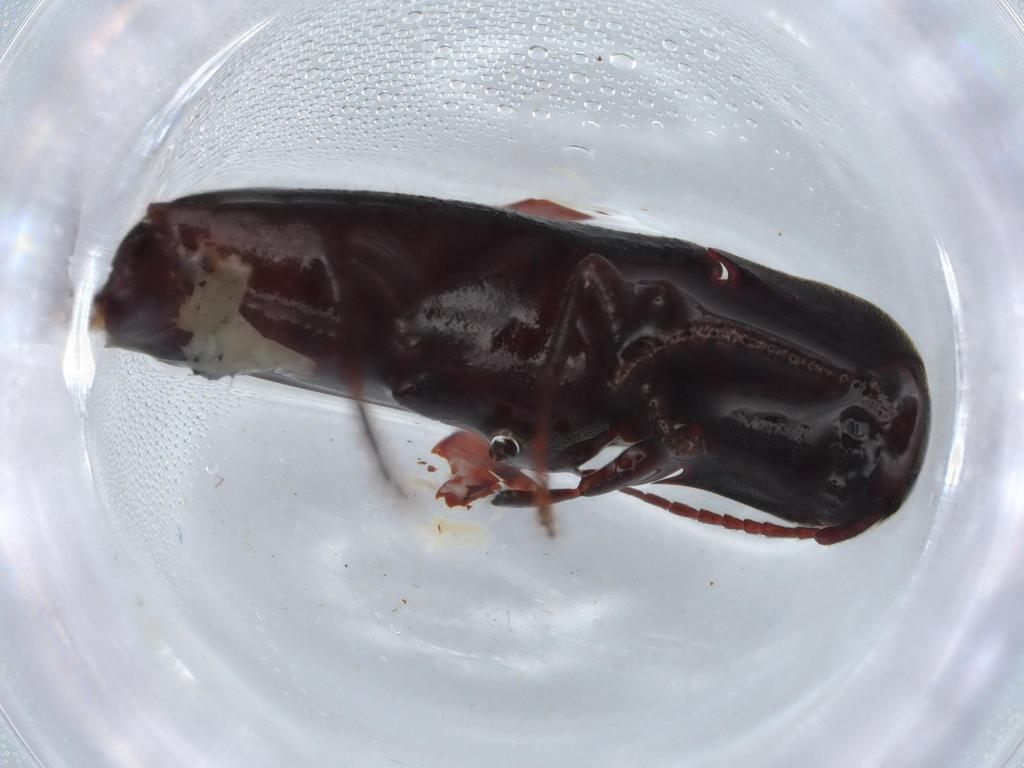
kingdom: Animalia
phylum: Arthropoda
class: Insecta
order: Coleoptera
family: Eucnemidae
